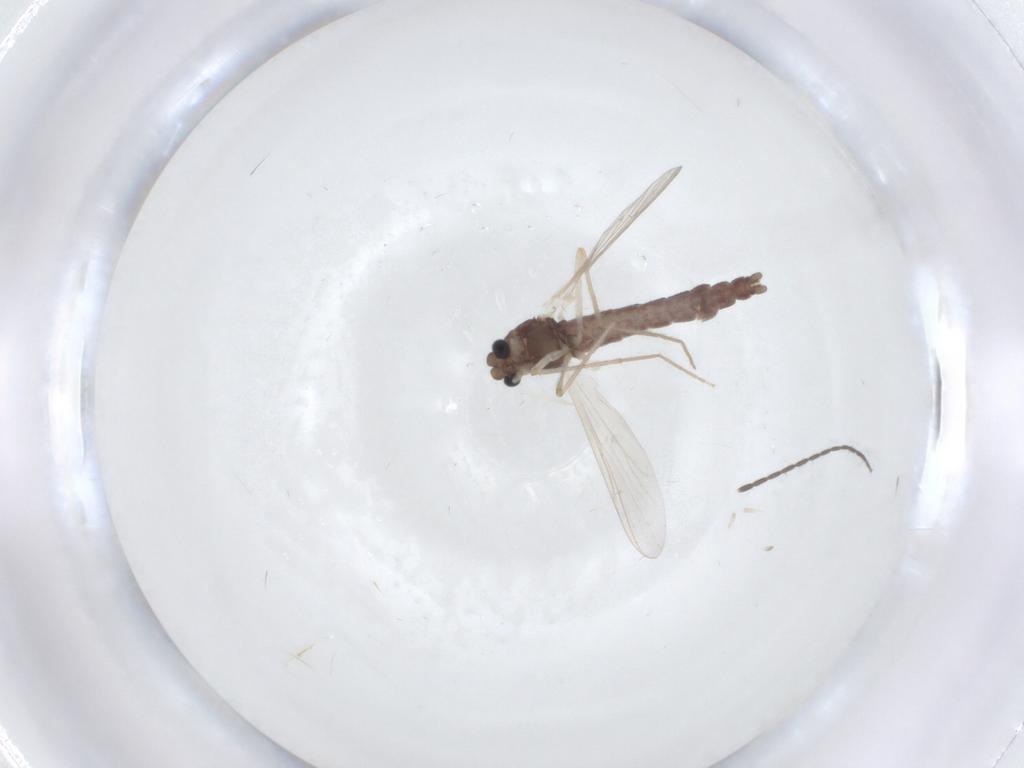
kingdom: Animalia
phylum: Arthropoda
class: Insecta
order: Diptera
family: Chironomidae
